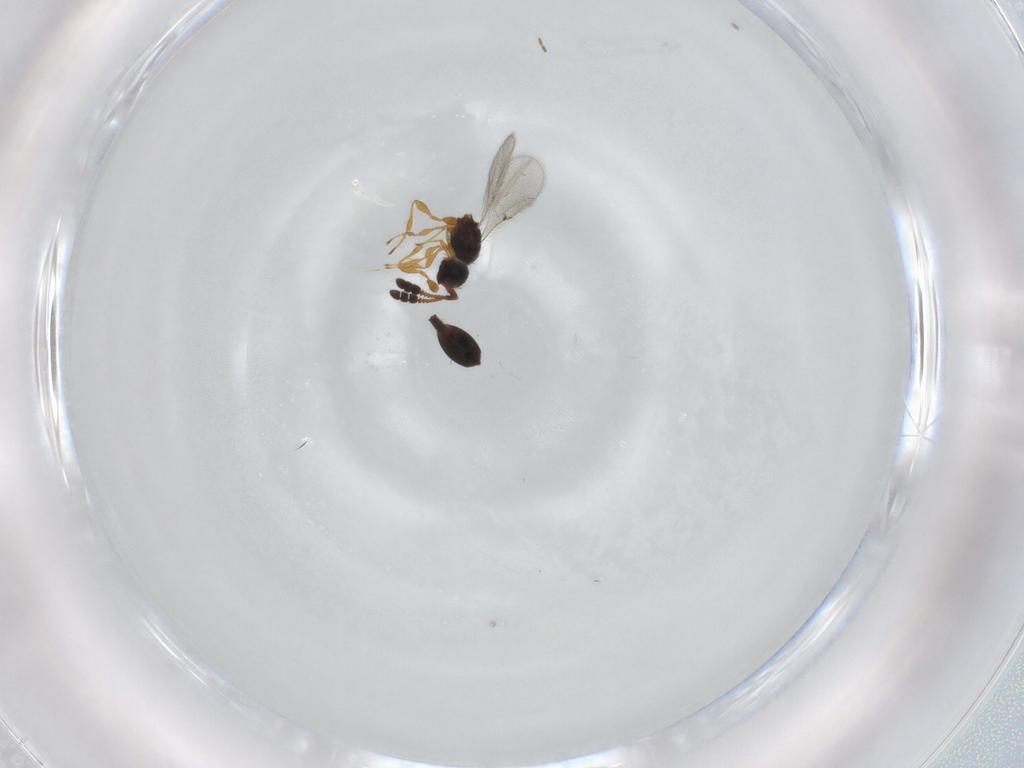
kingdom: Animalia
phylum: Arthropoda
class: Insecta
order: Hymenoptera
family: Diapriidae
